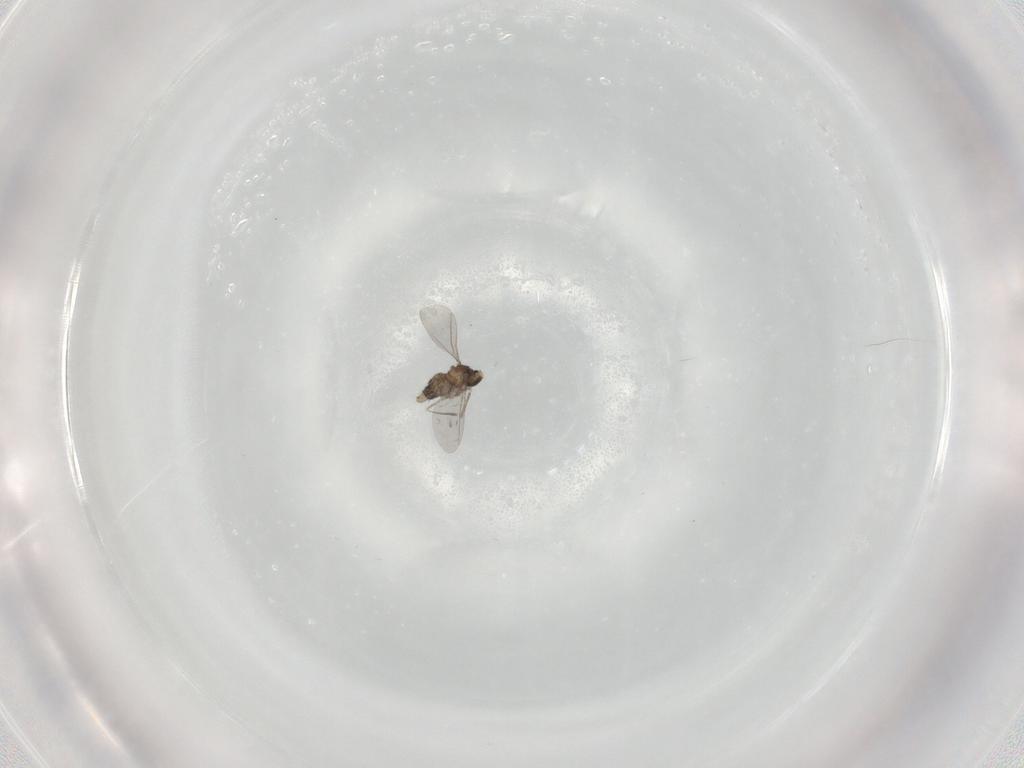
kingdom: Animalia
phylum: Arthropoda
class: Insecta
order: Diptera
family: Cecidomyiidae
